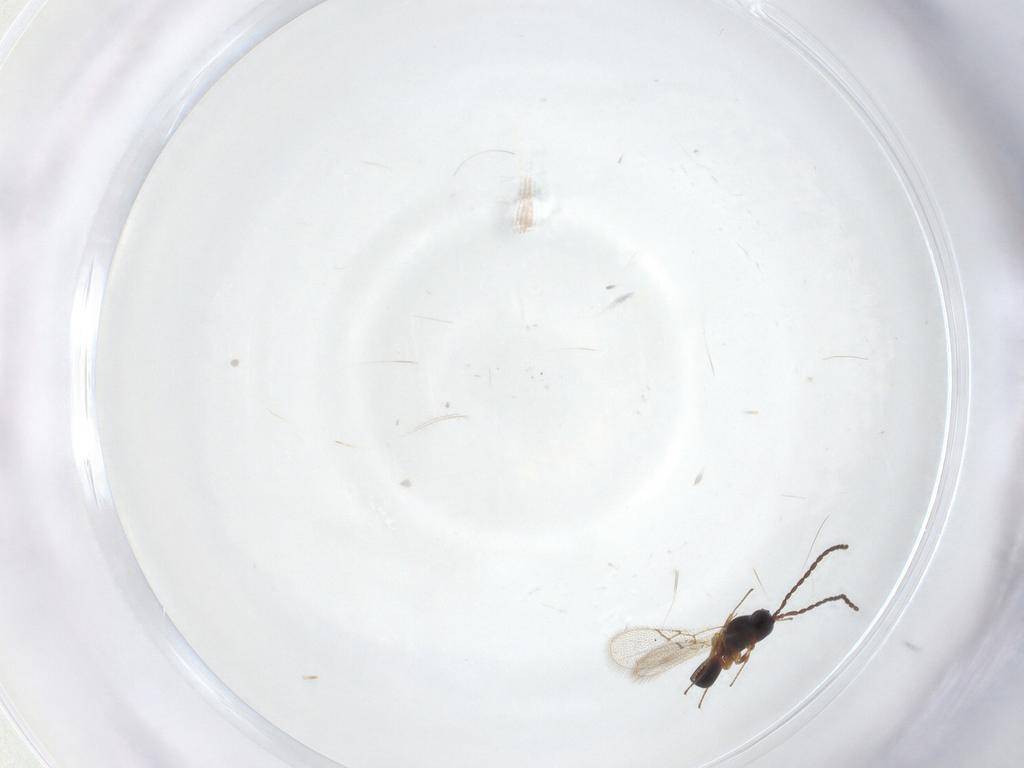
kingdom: Animalia
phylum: Arthropoda
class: Insecta
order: Hymenoptera
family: Figitidae
